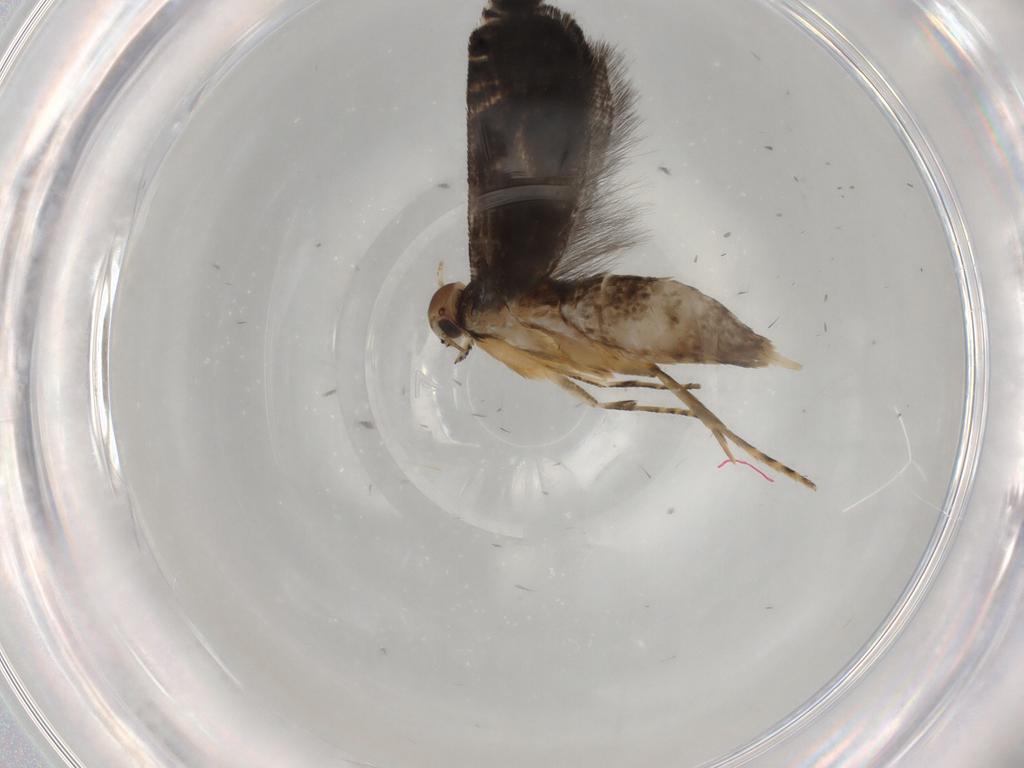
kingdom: Animalia
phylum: Arthropoda
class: Insecta
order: Lepidoptera
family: Glyphipterigidae
